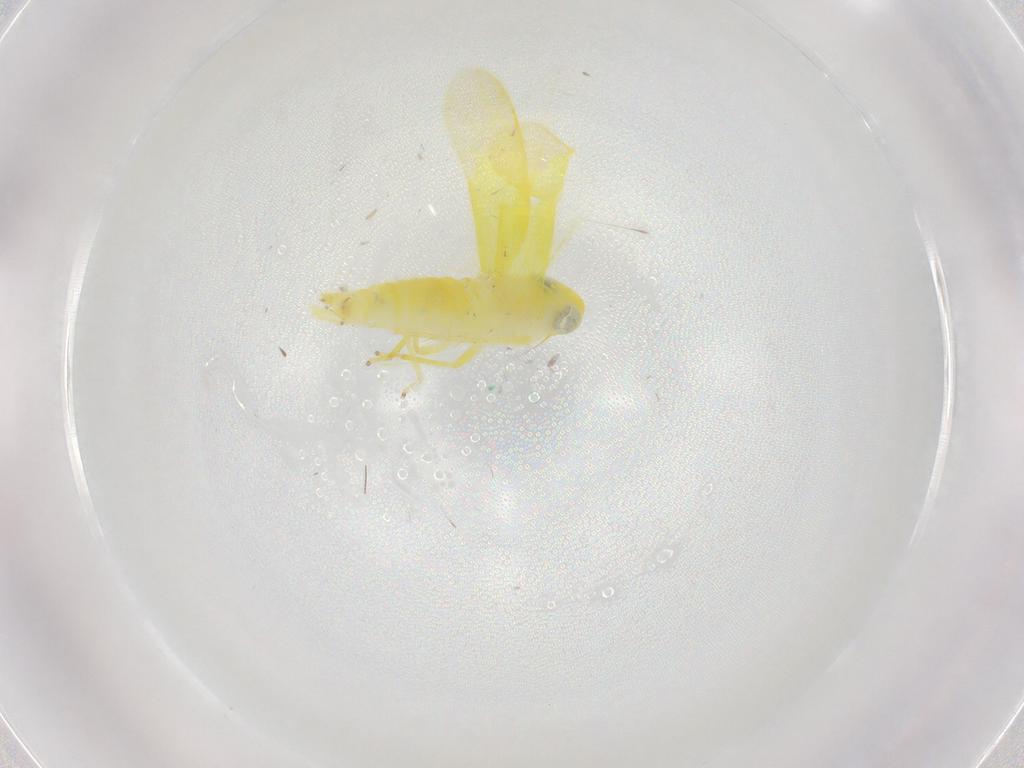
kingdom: Animalia
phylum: Arthropoda
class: Insecta
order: Hemiptera
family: Cicadellidae
